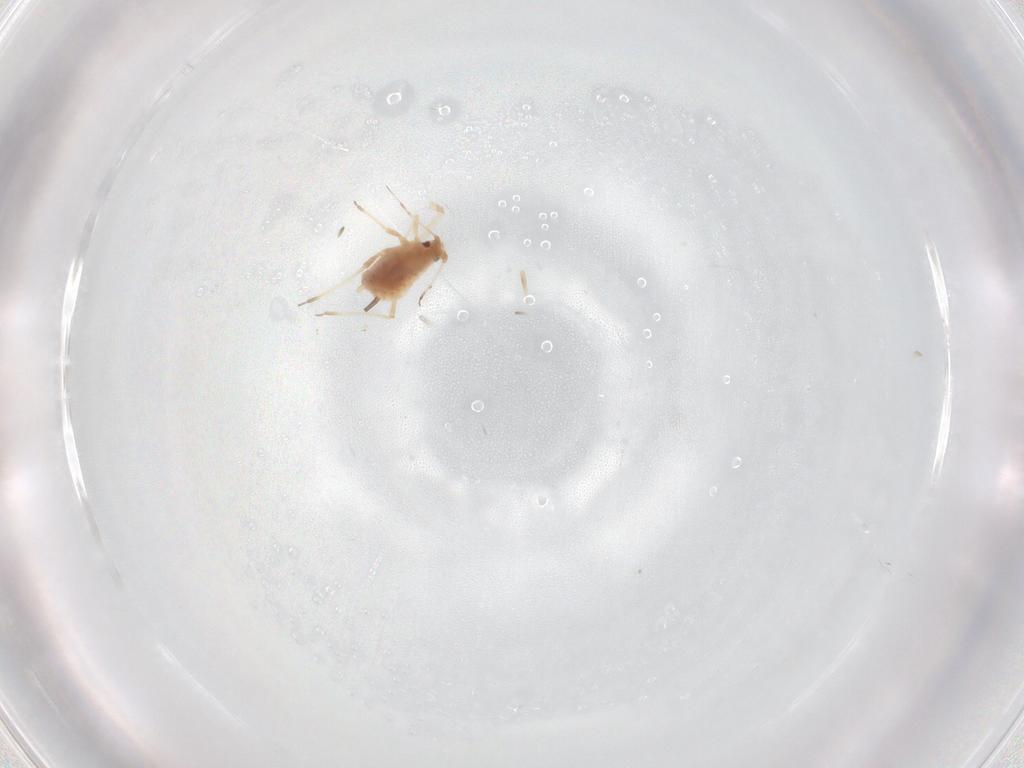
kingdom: Animalia
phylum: Arthropoda
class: Insecta
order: Hemiptera
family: Aphididae
